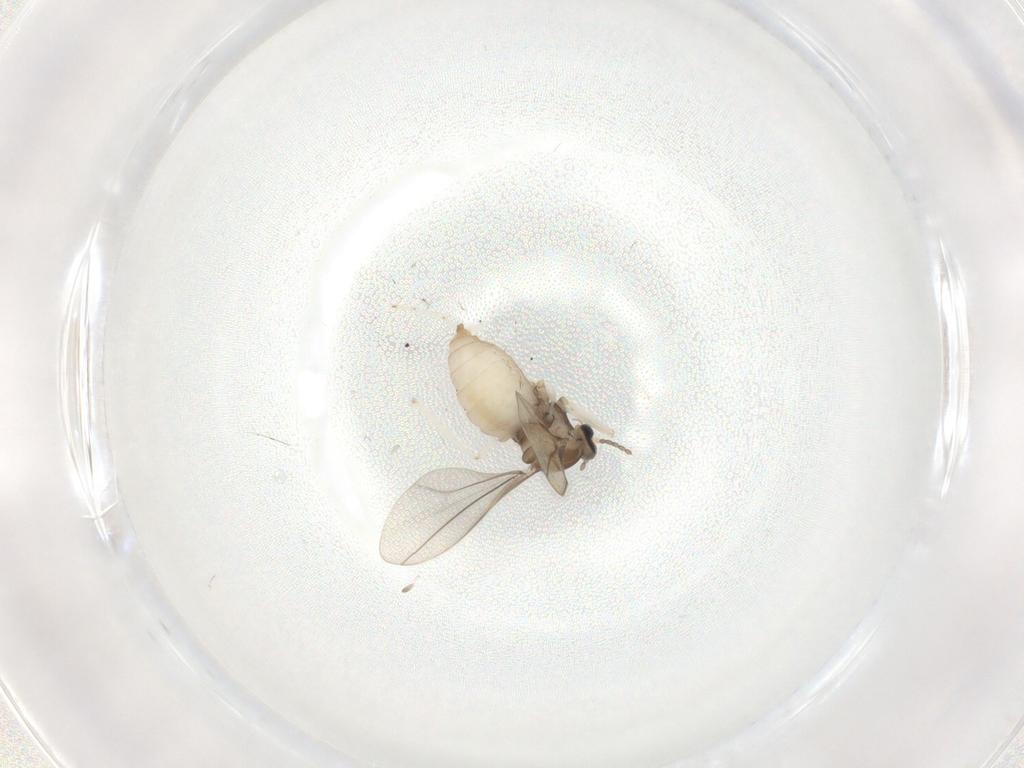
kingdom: Animalia
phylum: Arthropoda
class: Insecta
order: Diptera
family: Cecidomyiidae
